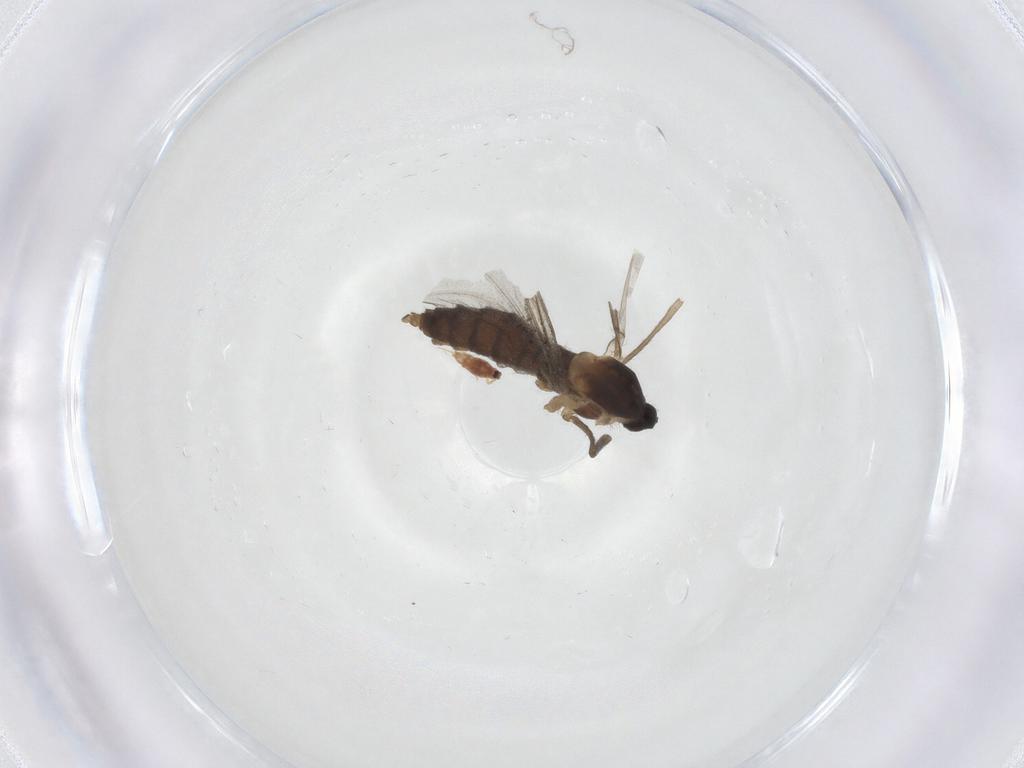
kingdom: Animalia
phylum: Arthropoda
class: Insecta
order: Diptera
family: Cecidomyiidae
